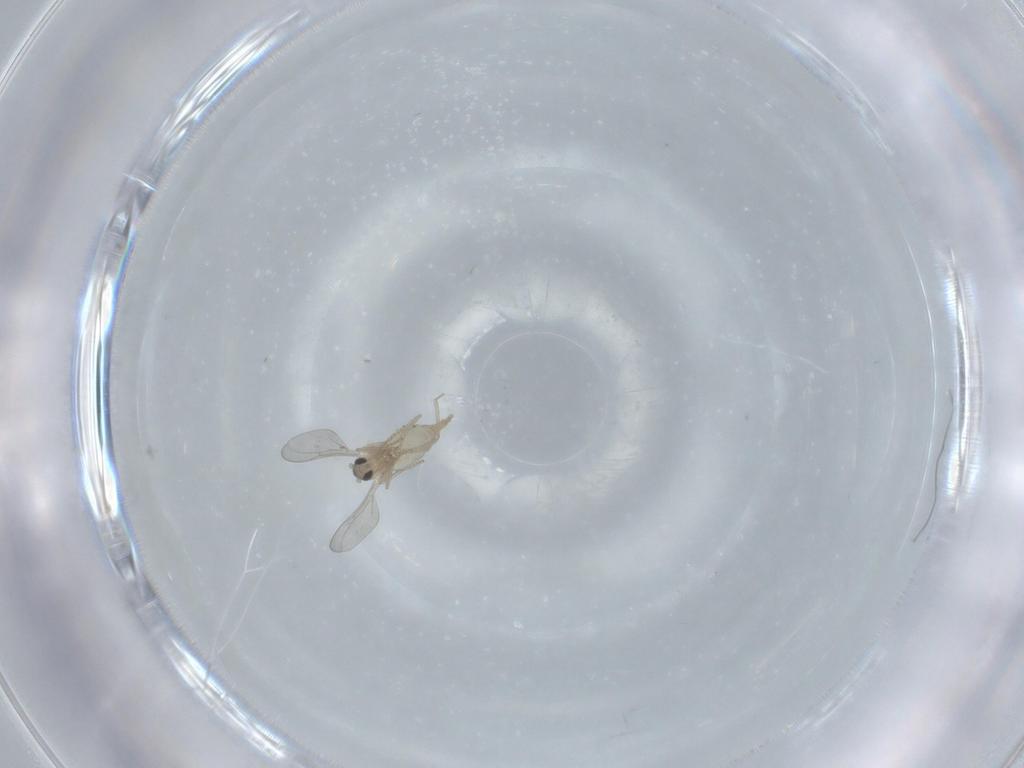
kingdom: Animalia
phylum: Arthropoda
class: Insecta
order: Diptera
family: Cecidomyiidae
